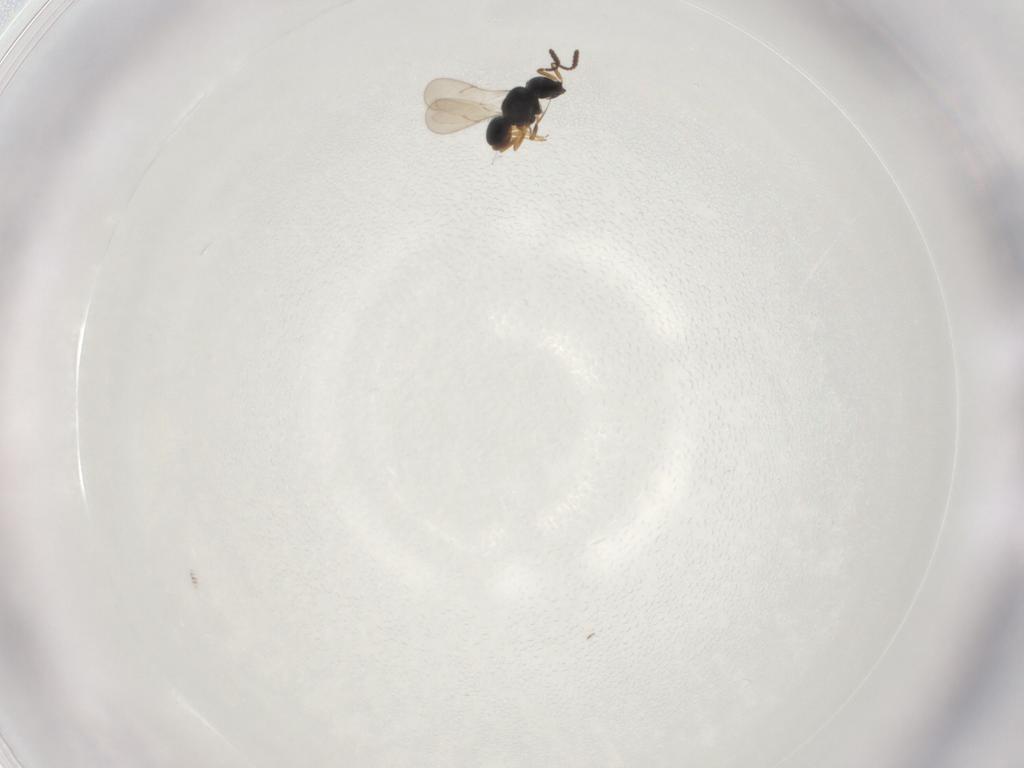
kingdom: Animalia
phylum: Arthropoda
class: Insecta
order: Hymenoptera
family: Scelionidae
